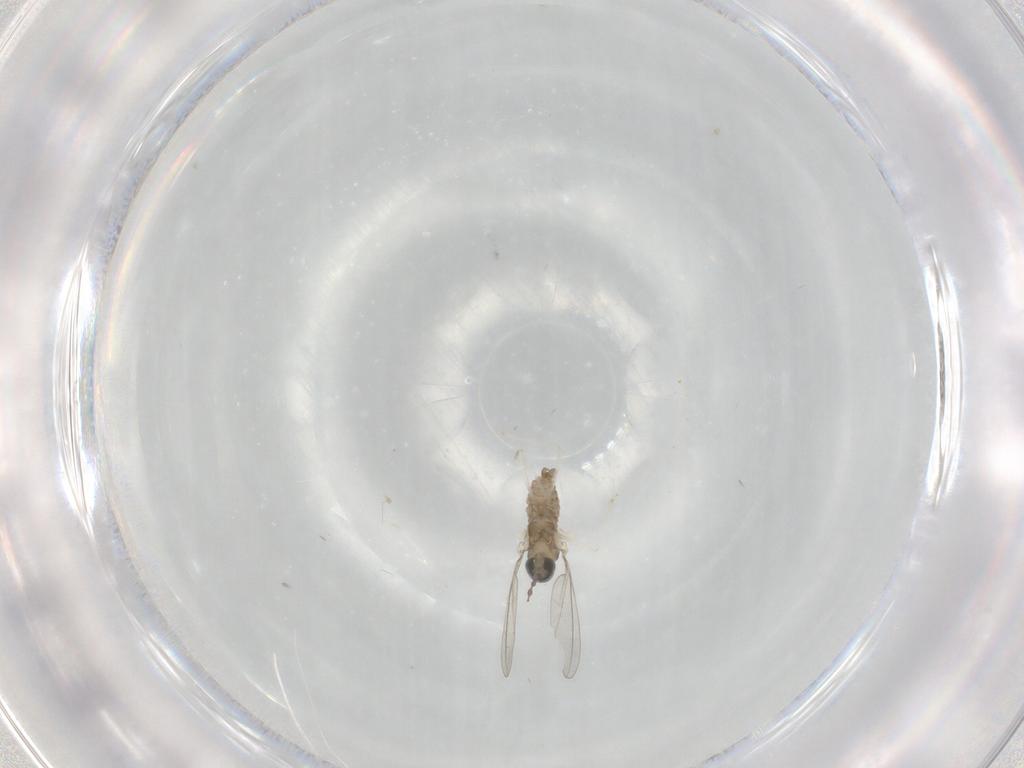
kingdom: Animalia
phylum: Arthropoda
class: Insecta
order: Diptera
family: Cecidomyiidae
